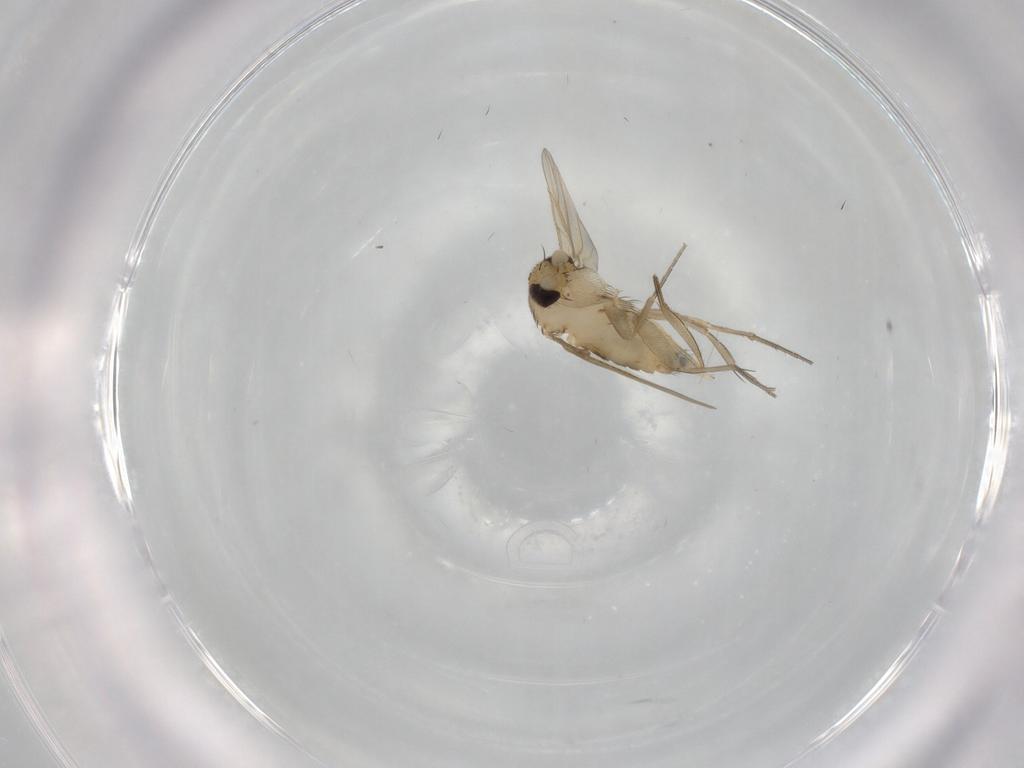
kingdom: Animalia
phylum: Arthropoda
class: Insecta
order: Diptera
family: Phoridae
